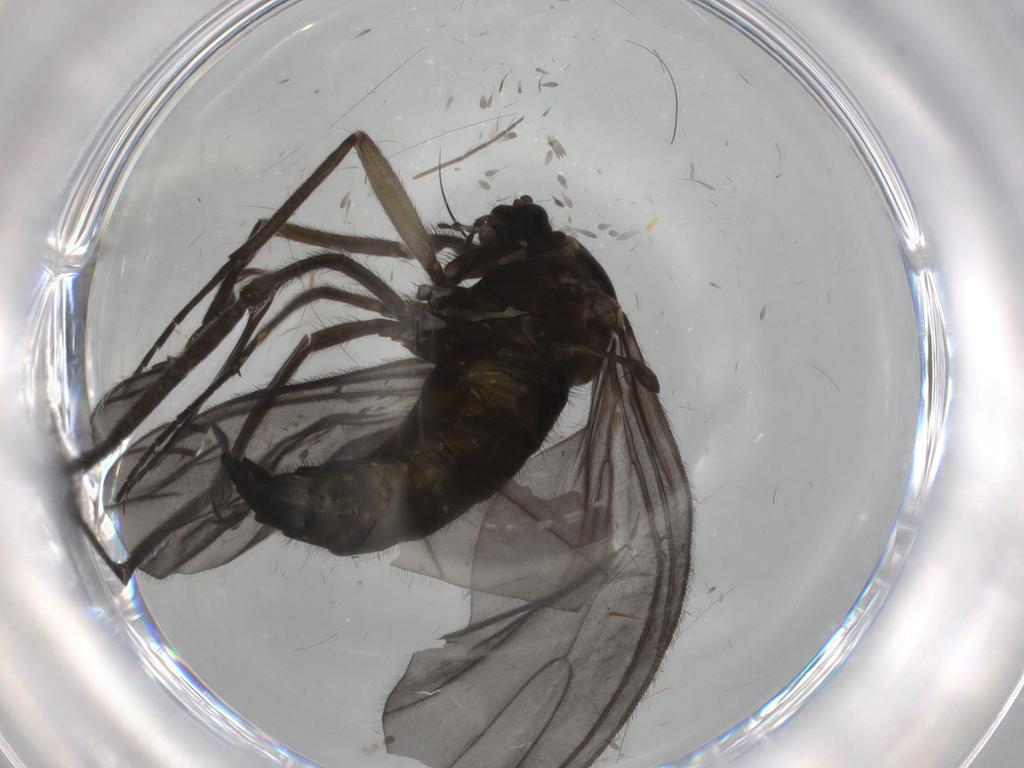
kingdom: Animalia
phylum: Arthropoda
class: Insecta
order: Diptera
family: Sciaridae
